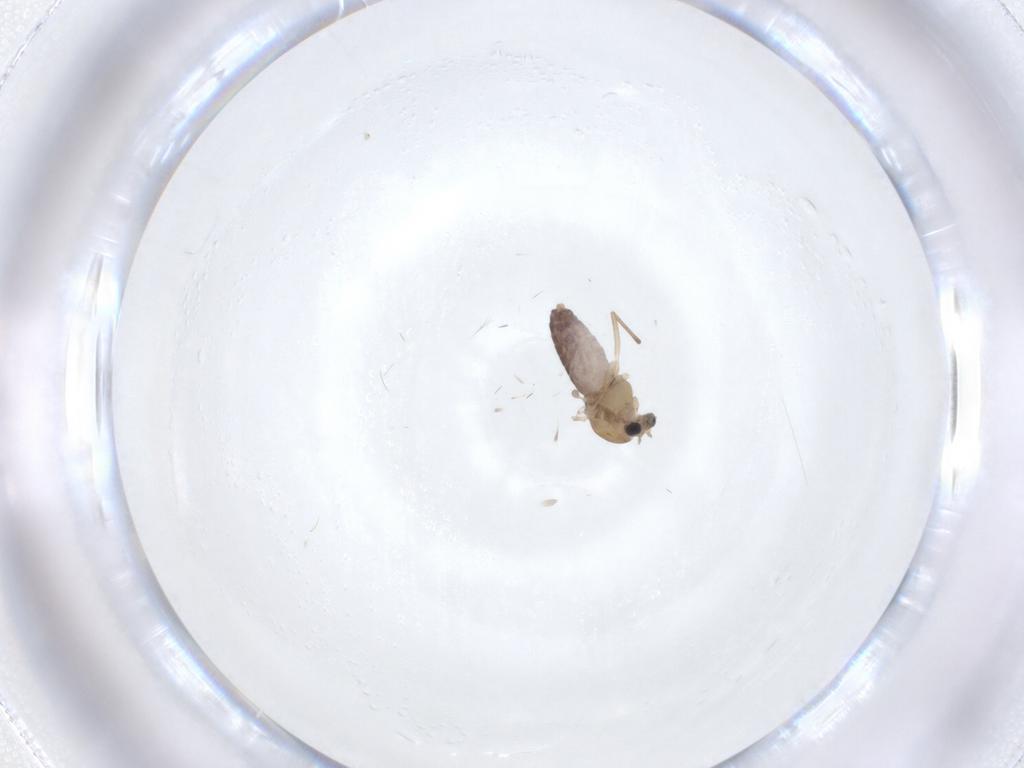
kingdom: Animalia
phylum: Arthropoda
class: Insecta
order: Diptera
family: Chironomidae
